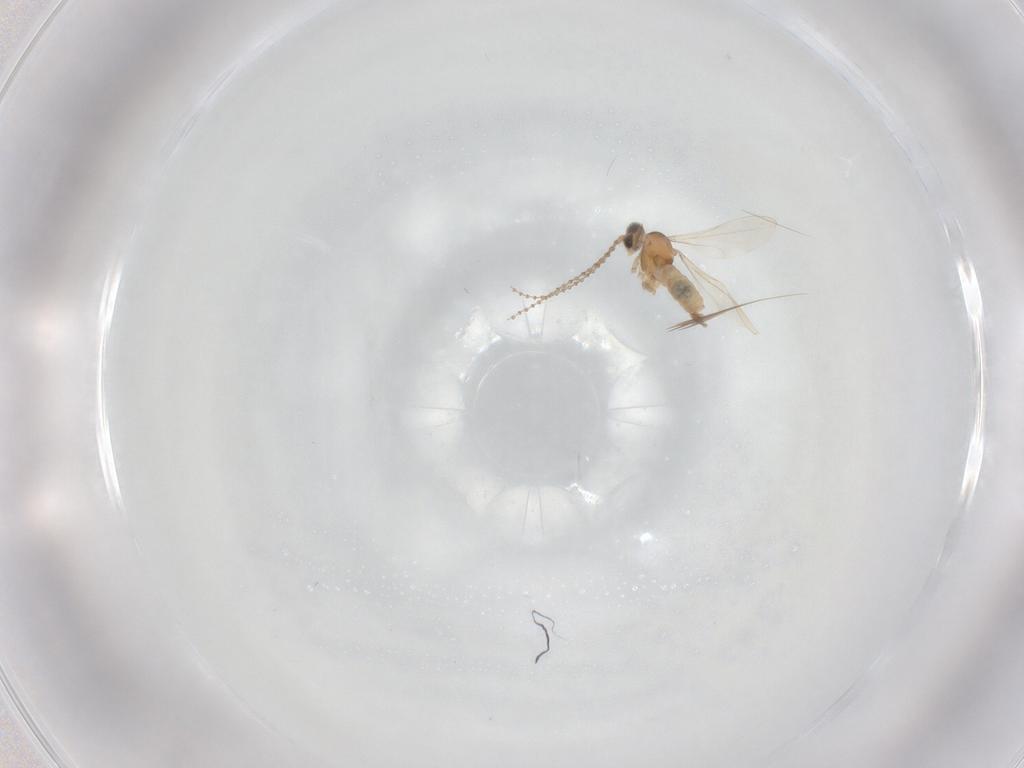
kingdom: Animalia
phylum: Arthropoda
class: Insecta
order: Diptera
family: Cecidomyiidae
